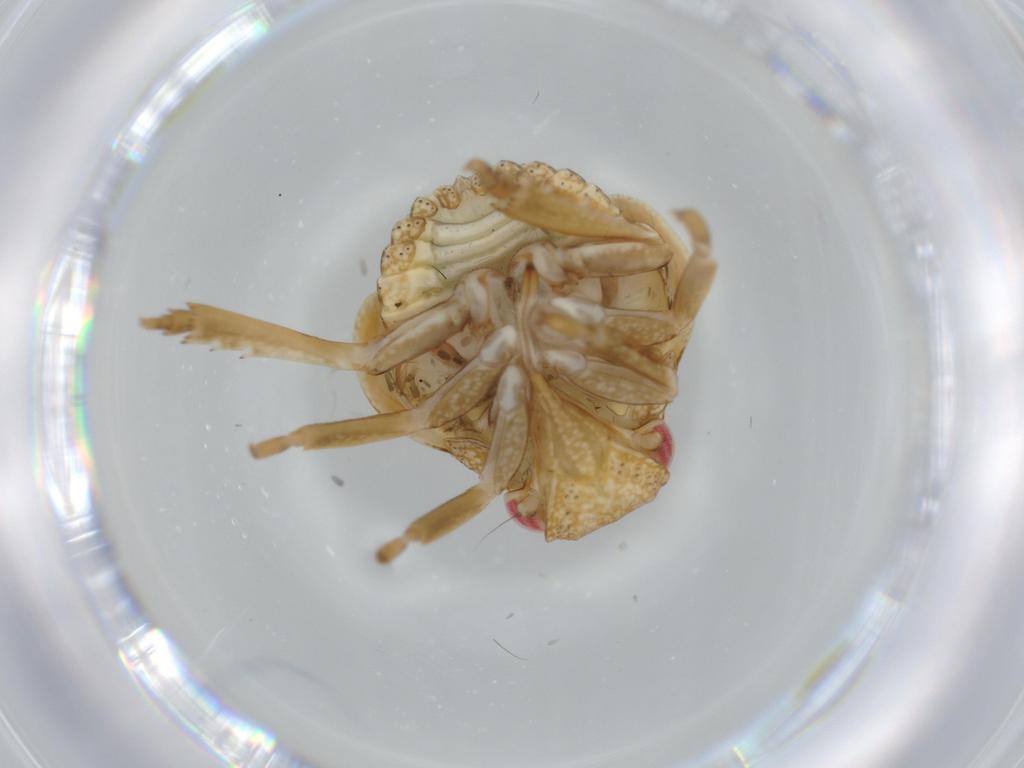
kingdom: Animalia
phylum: Arthropoda
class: Insecta
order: Hemiptera
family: Acanaloniidae
